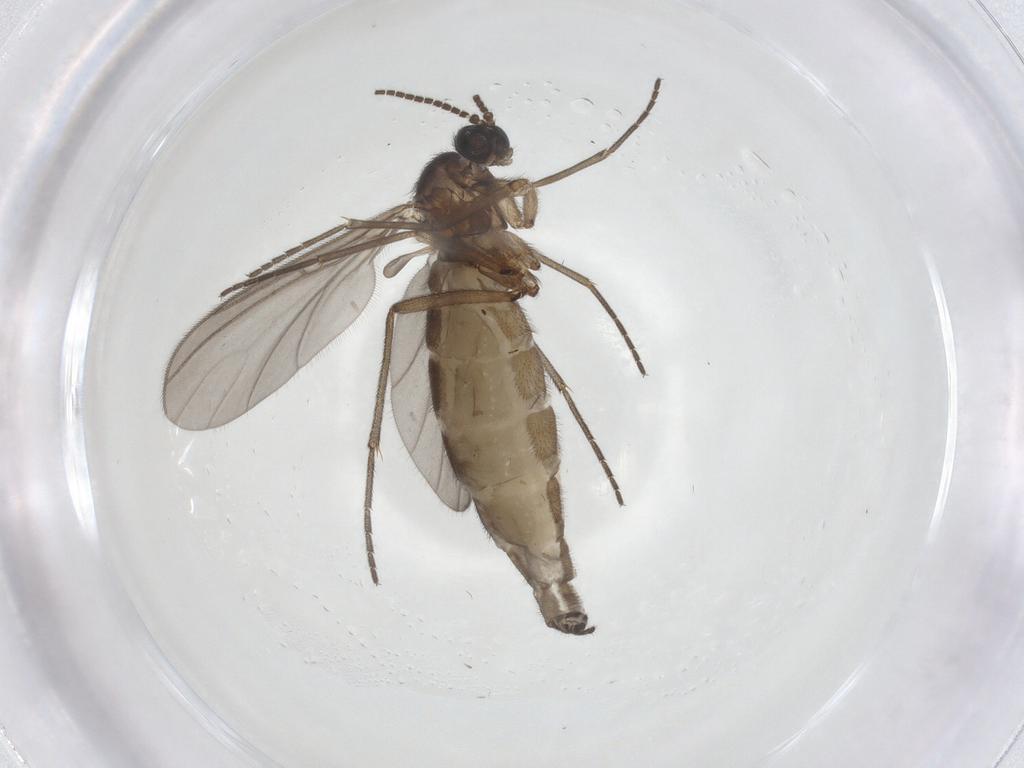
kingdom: Animalia
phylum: Arthropoda
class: Insecta
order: Diptera
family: Sciaridae
